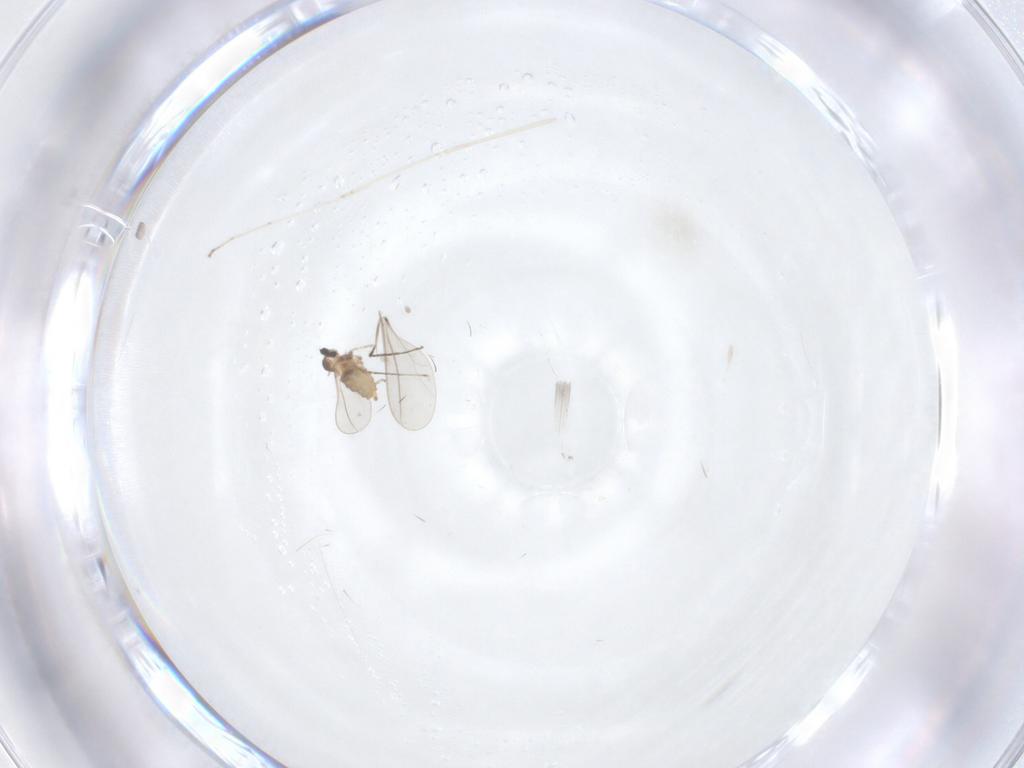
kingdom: Animalia
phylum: Arthropoda
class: Insecta
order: Diptera
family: Cecidomyiidae
